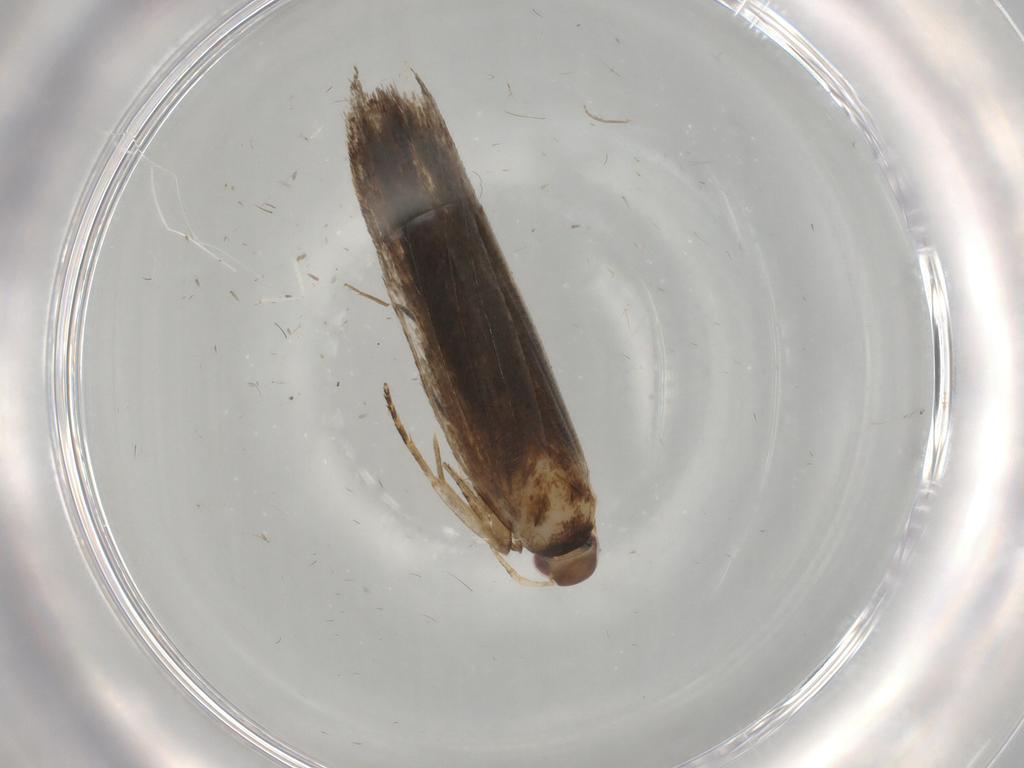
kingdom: Animalia
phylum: Arthropoda
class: Insecta
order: Lepidoptera
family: Gelechiidae
